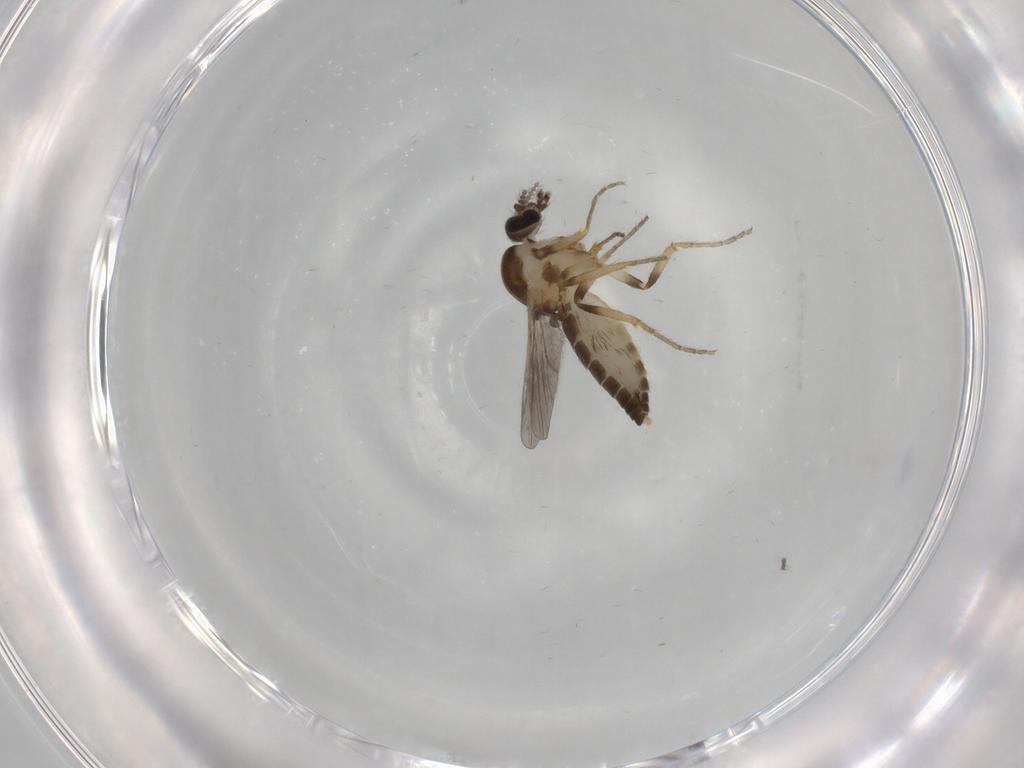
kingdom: Animalia
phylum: Arthropoda
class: Insecta
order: Diptera
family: Ceratopogonidae
